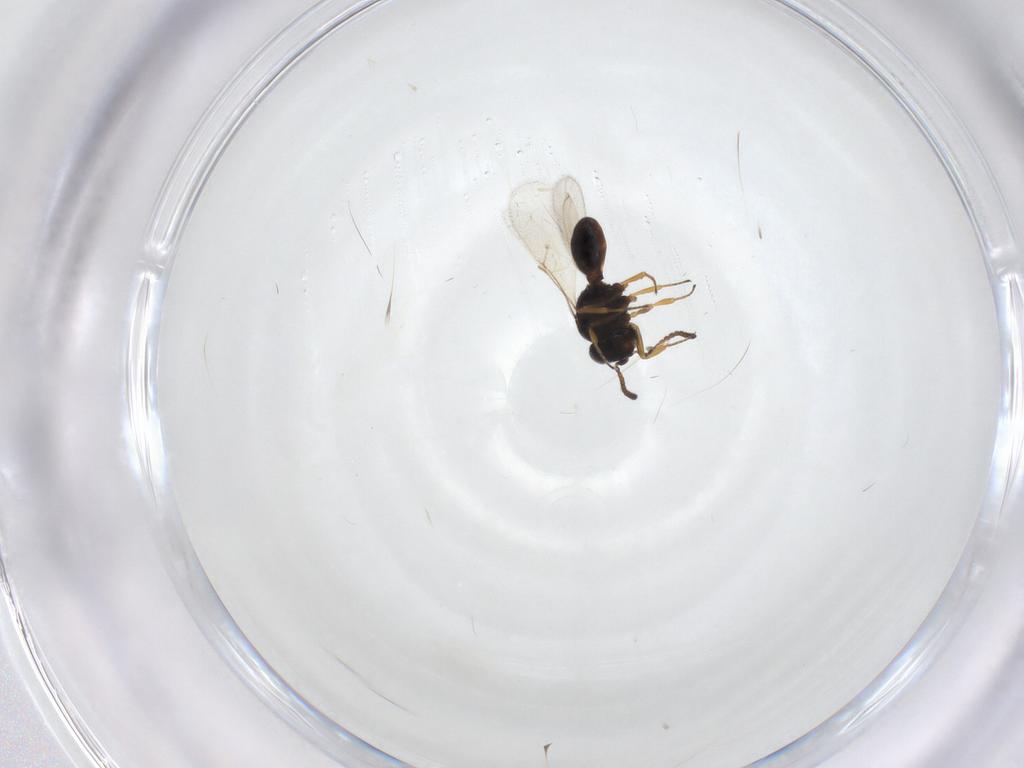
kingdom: Animalia
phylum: Arthropoda
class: Insecta
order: Hymenoptera
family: Scelionidae
